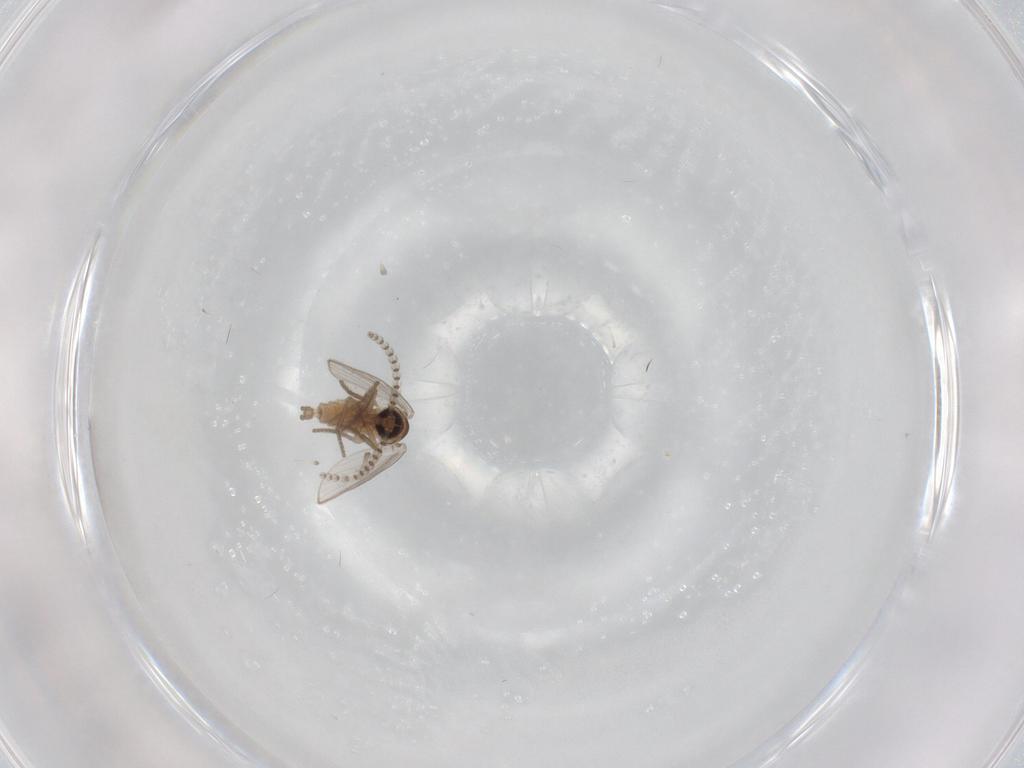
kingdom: Animalia
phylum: Arthropoda
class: Insecta
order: Diptera
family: Psychodidae
